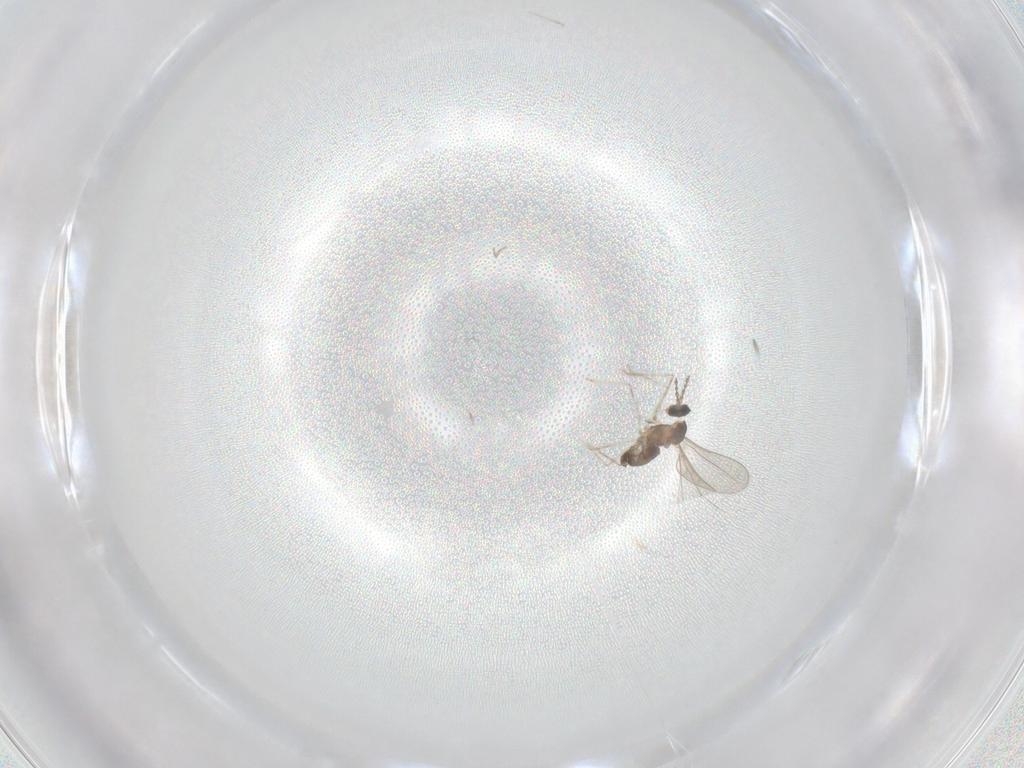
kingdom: Animalia
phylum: Arthropoda
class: Insecta
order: Diptera
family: Cecidomyiidae
